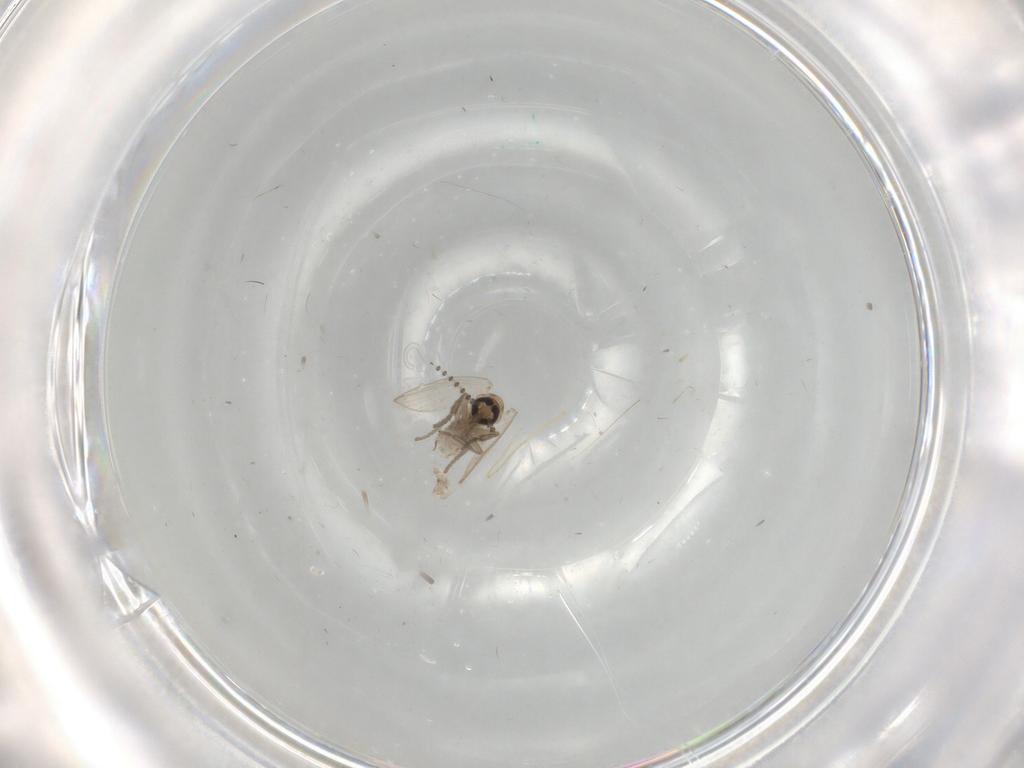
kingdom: Animalia
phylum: Arthropoda
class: Insecta
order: Diptera
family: Psychodidae
